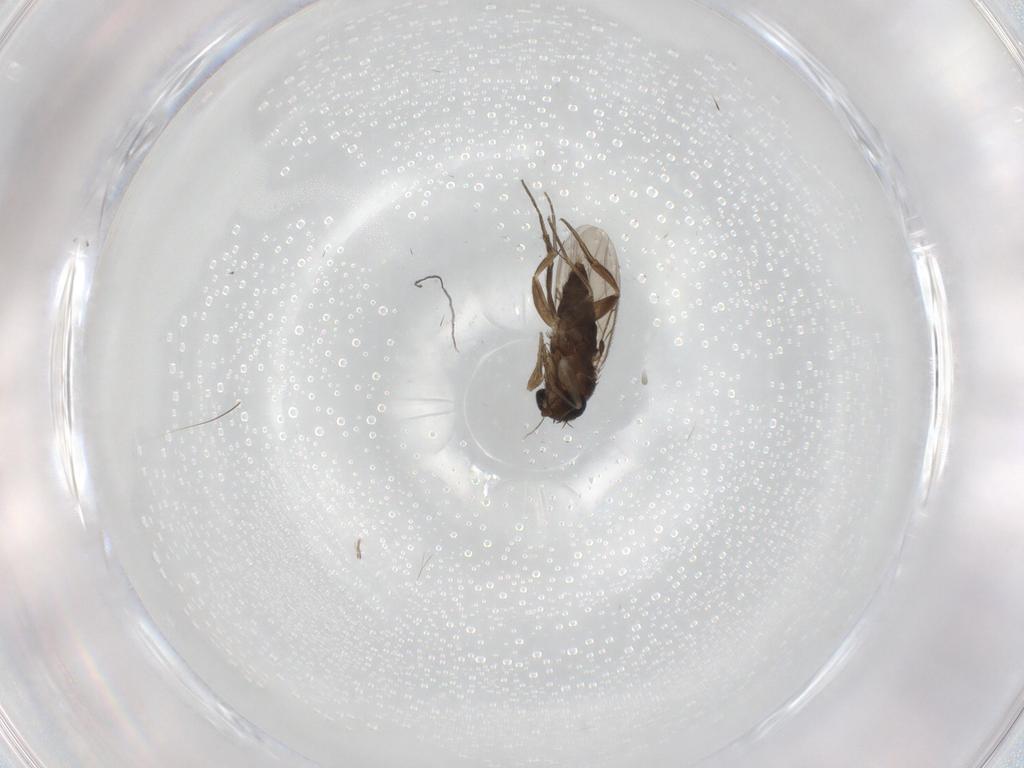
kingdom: Animalia
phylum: Arthropoda
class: Insecta
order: Diptera
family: Phoridae
